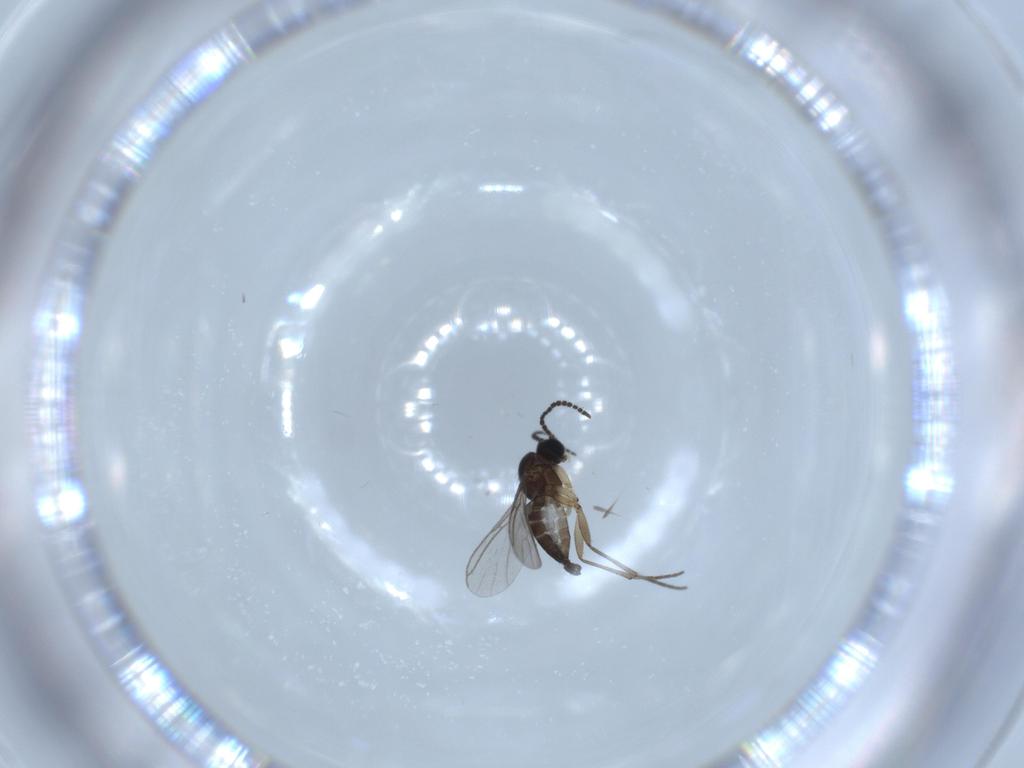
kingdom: Animalia
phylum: Arthropoda
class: Insecta
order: Diptera
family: Sciaridae
